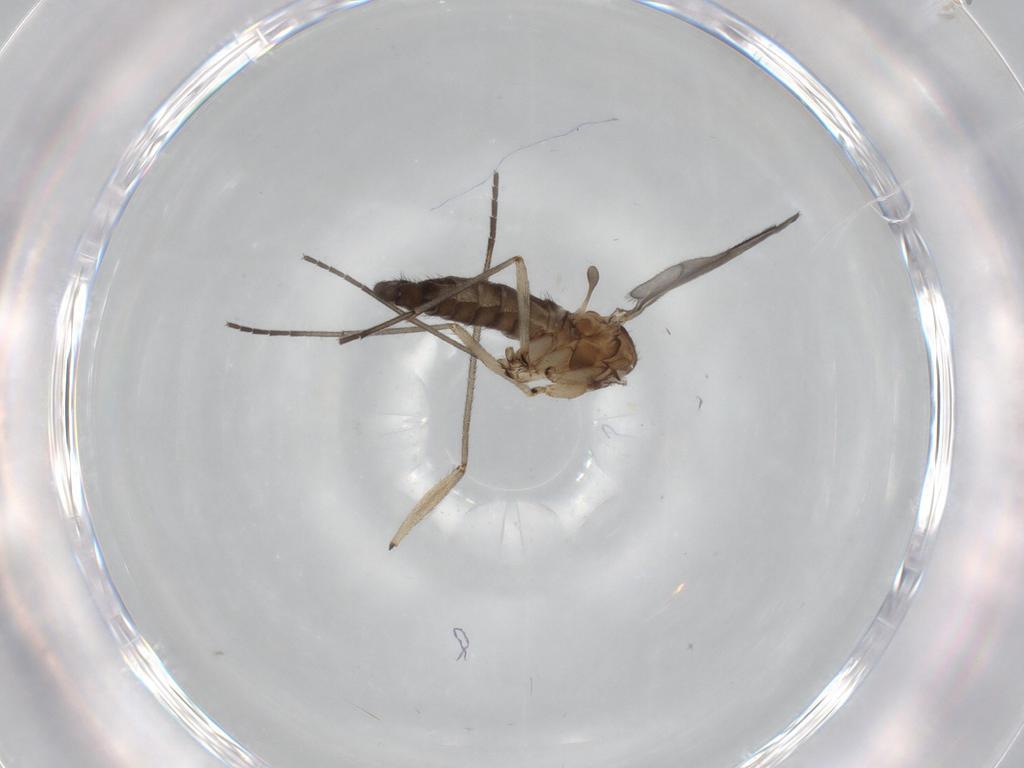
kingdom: Animalia
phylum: Arthropoda
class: Insecta
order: Diptera
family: Sciaridae
